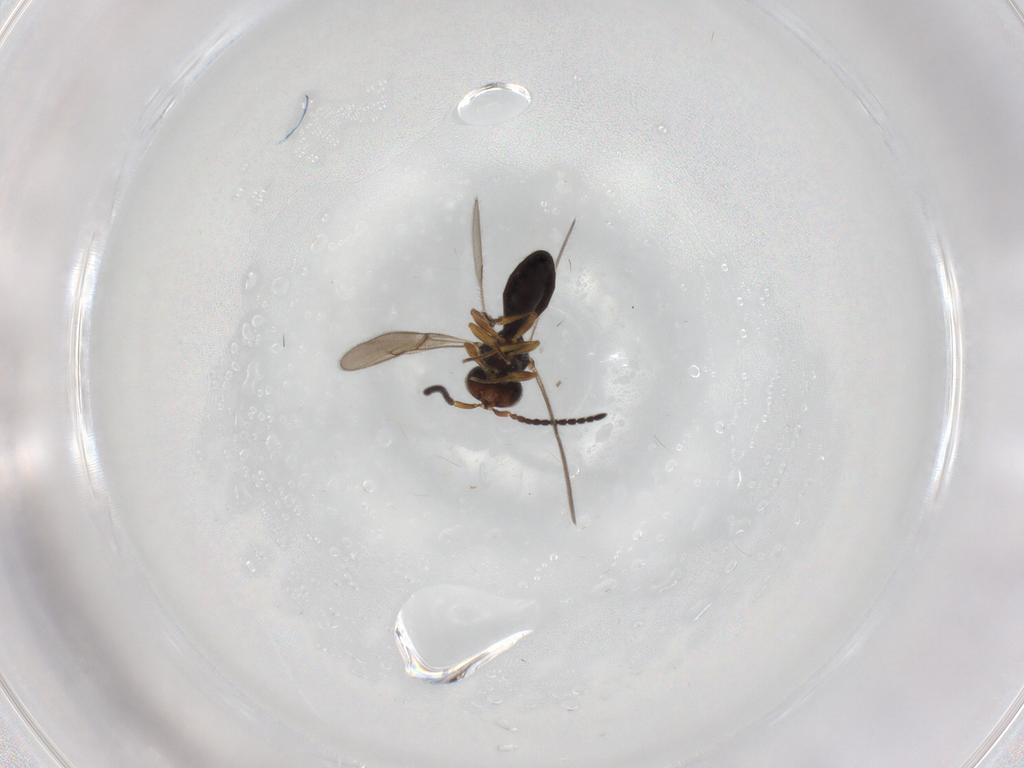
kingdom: Animalia
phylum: Arthropoda
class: Insecta
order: Hymenoptera
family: Scelionidae
